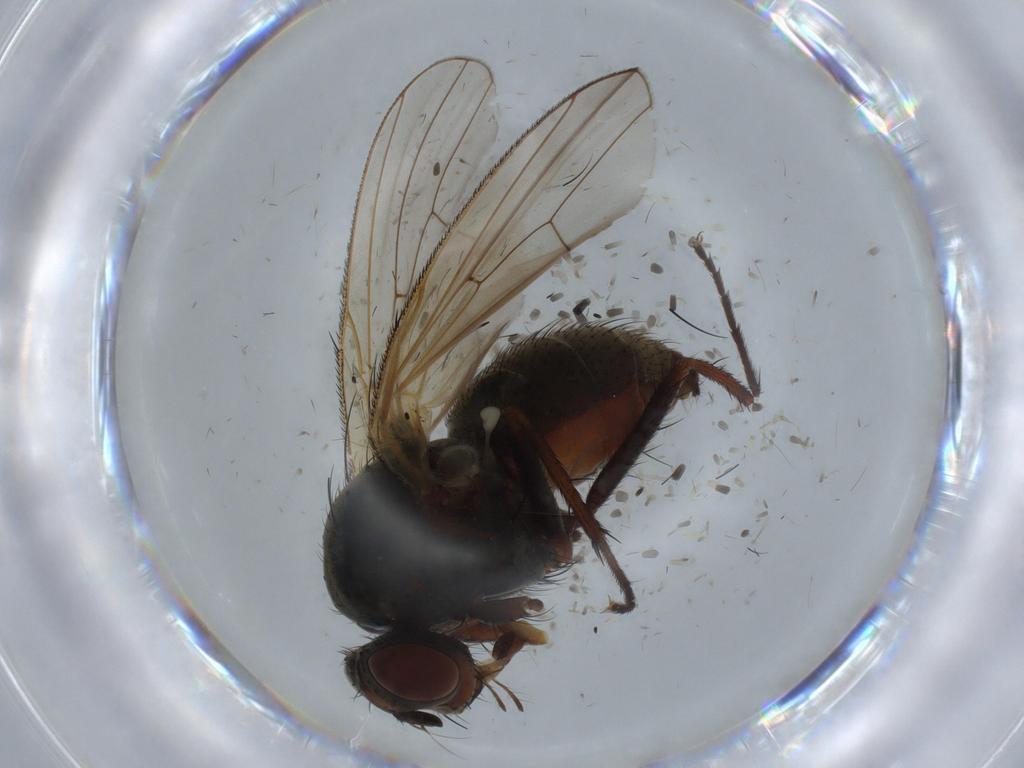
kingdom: Animalia
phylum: Arthropoda
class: Insecta
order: Diptera
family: Anthomyiidae
